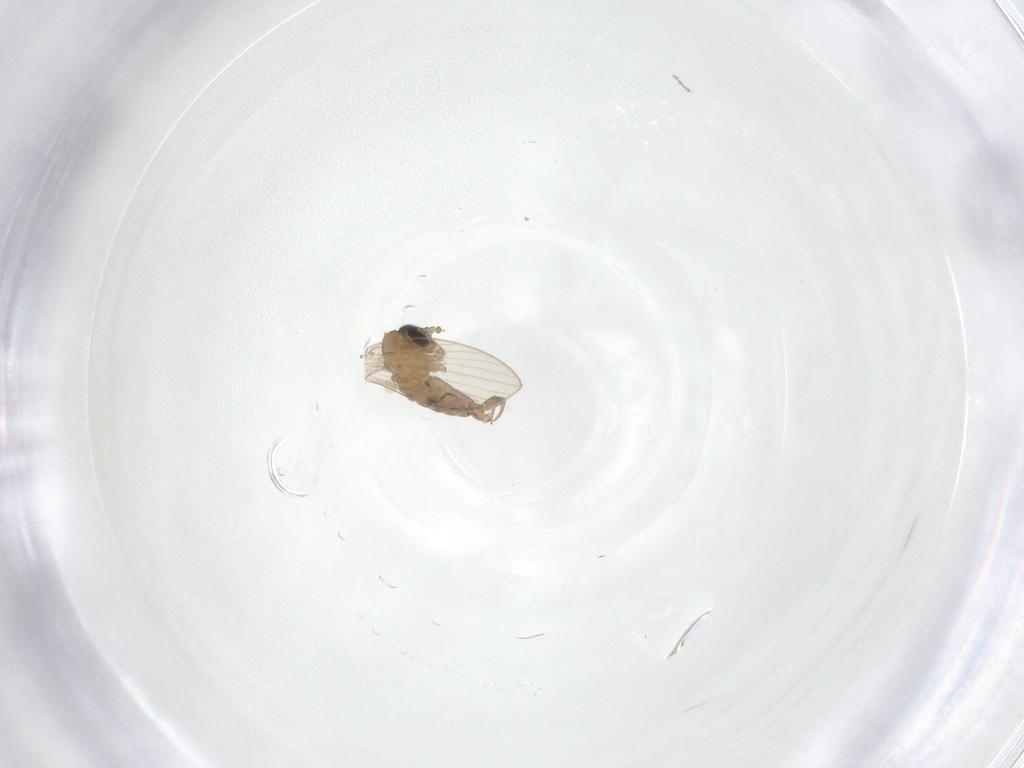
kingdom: Animalia
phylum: Arthropoda
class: Insecta
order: Diptera
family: Psychodidae
